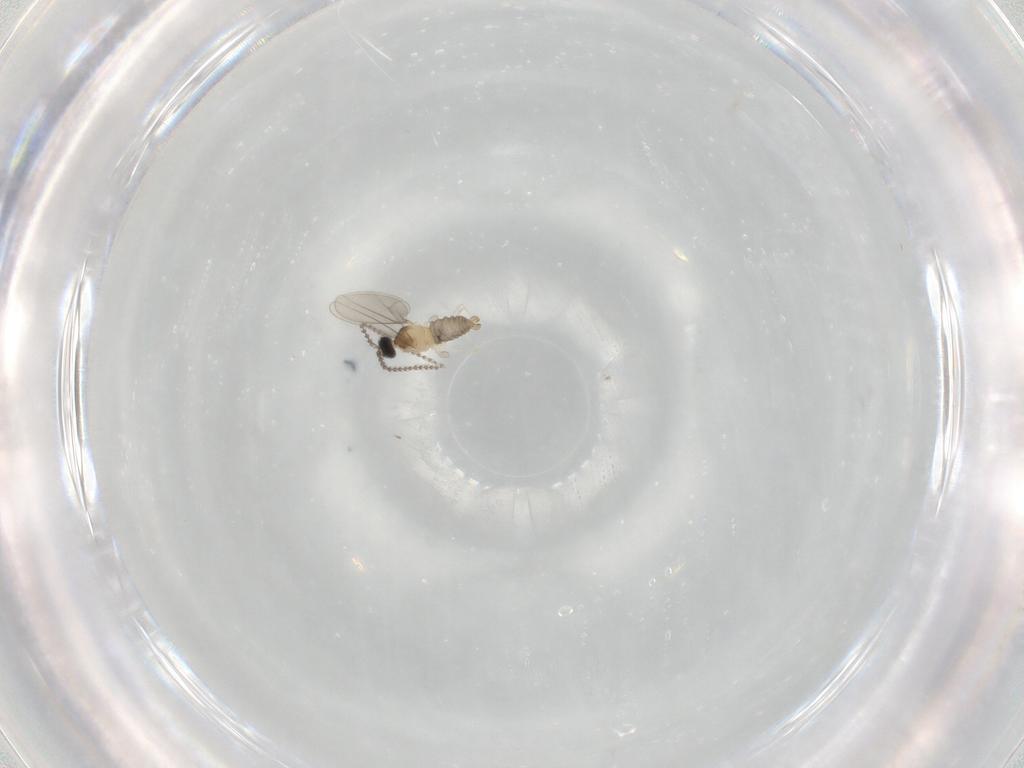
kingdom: Animalia
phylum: Arthropoda
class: Insecta
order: Diptera
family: Cecidomyiidae
